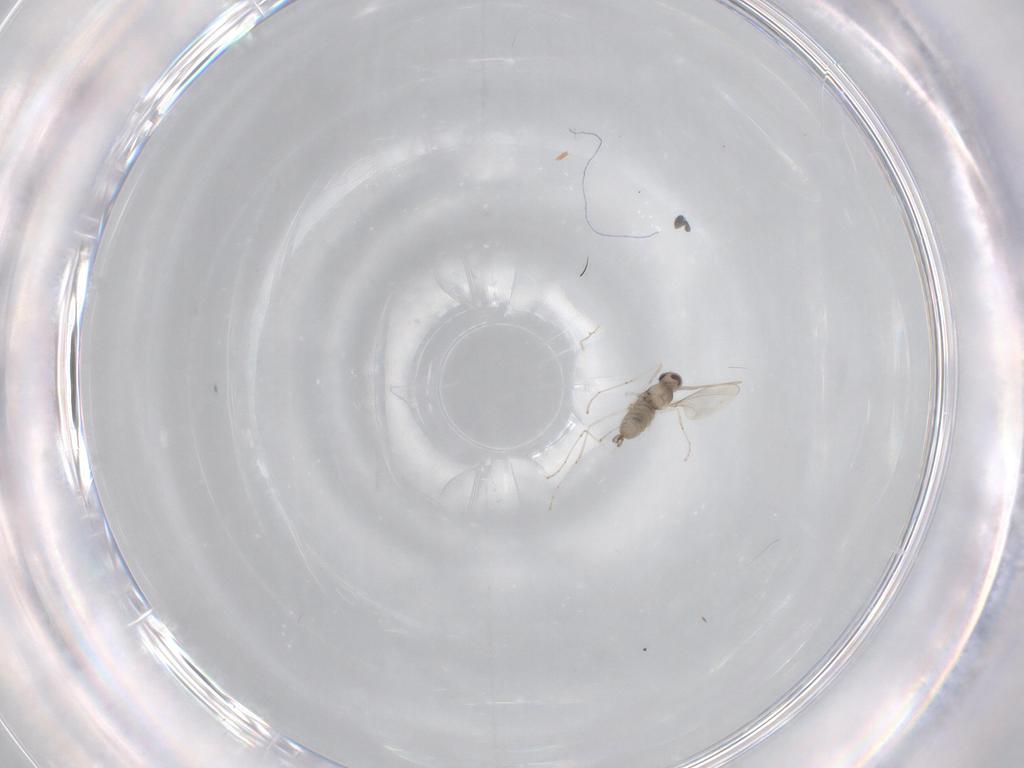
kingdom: Animalia
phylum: Arthropoda
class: Insecta
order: Diptera
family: Cecidomyiidae
